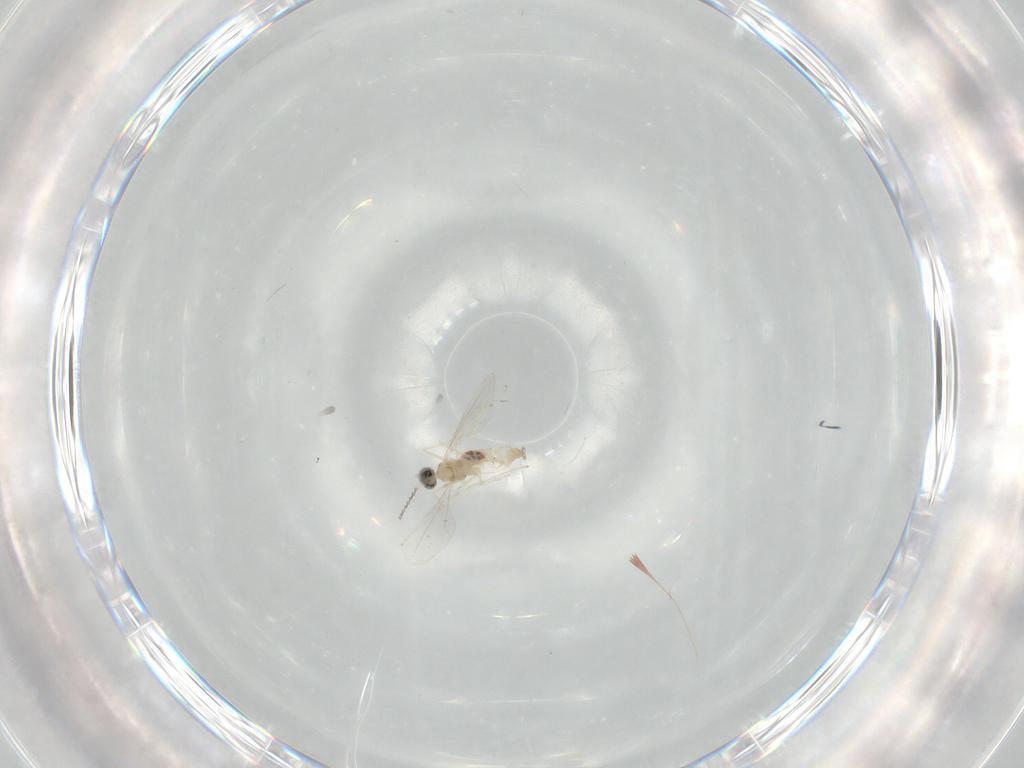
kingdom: Animalia
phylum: Arthropoda
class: Insecta
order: Diptera
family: Cecidomyiidae
